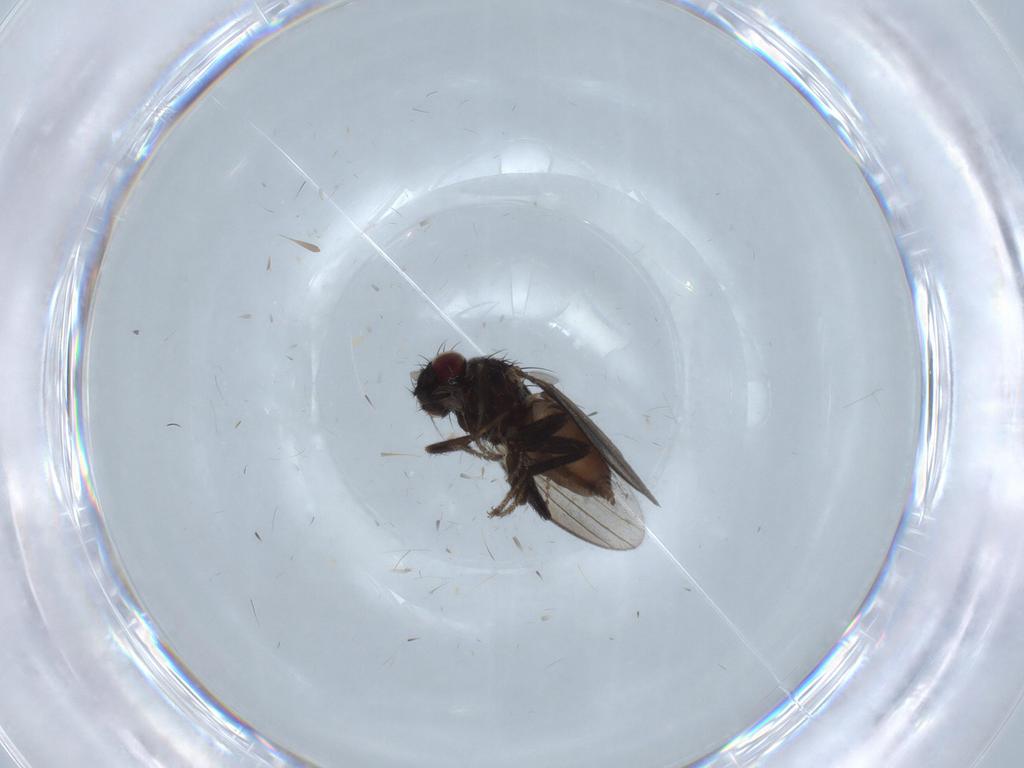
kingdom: Animalia
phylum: Arthropoda
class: Insecta
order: Diptera
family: Milichiidae
